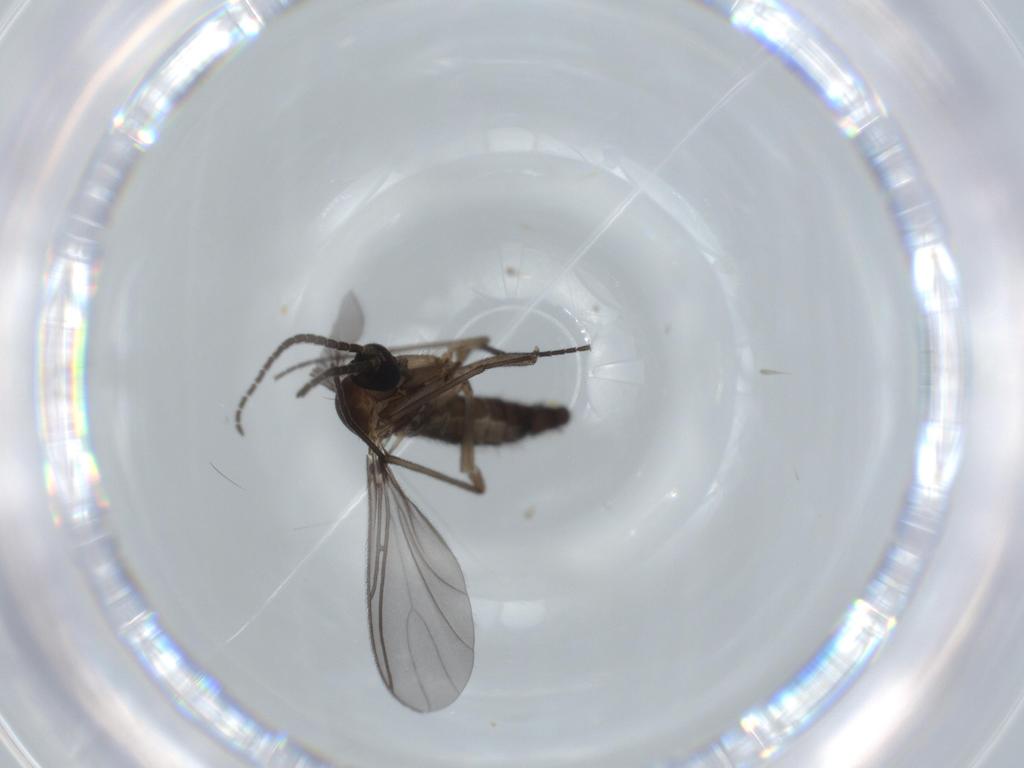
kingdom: Animalia
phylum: Arthropoda
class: Insecta
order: Diptera
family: Sciaridae
